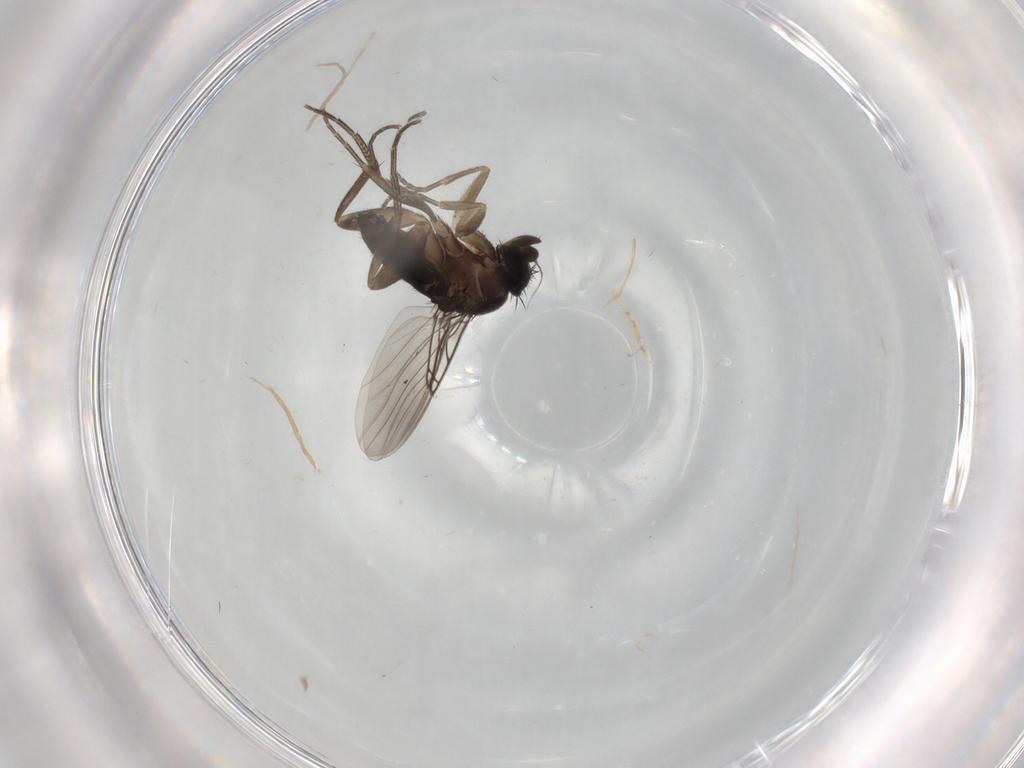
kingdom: Animalia
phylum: Arthropoda
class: Insecta
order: Diptera
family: Phoridae
